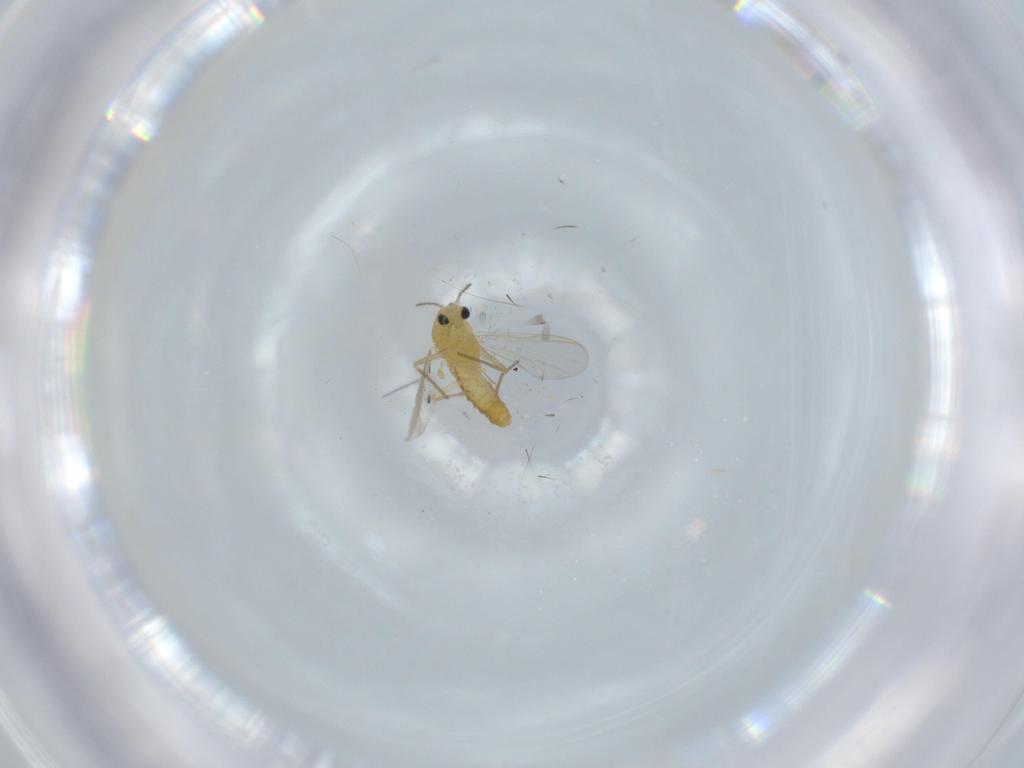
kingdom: Animalia
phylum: Arthropoda
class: Insecta
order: Diptera
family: Chironomidae
